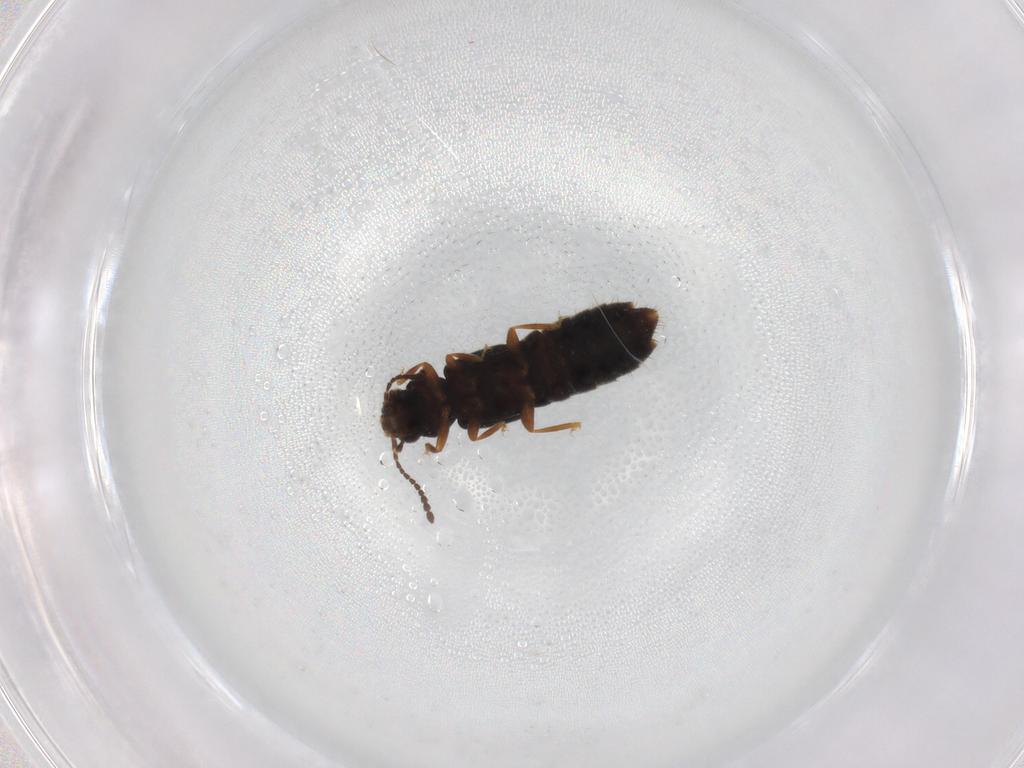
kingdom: Animalia
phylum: Arthropoda
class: Insecta
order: Coleoptera
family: Staphylinidae
